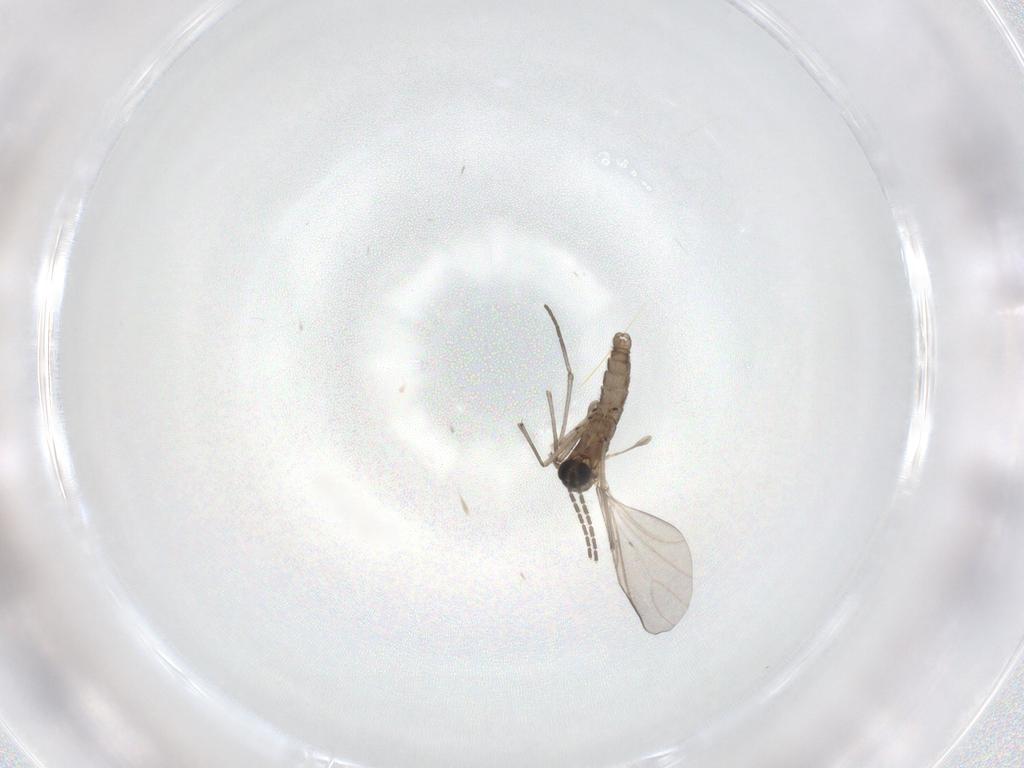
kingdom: Animalia
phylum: Arthropoda
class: Insecta
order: Diptera
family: Cecidomyiidae
